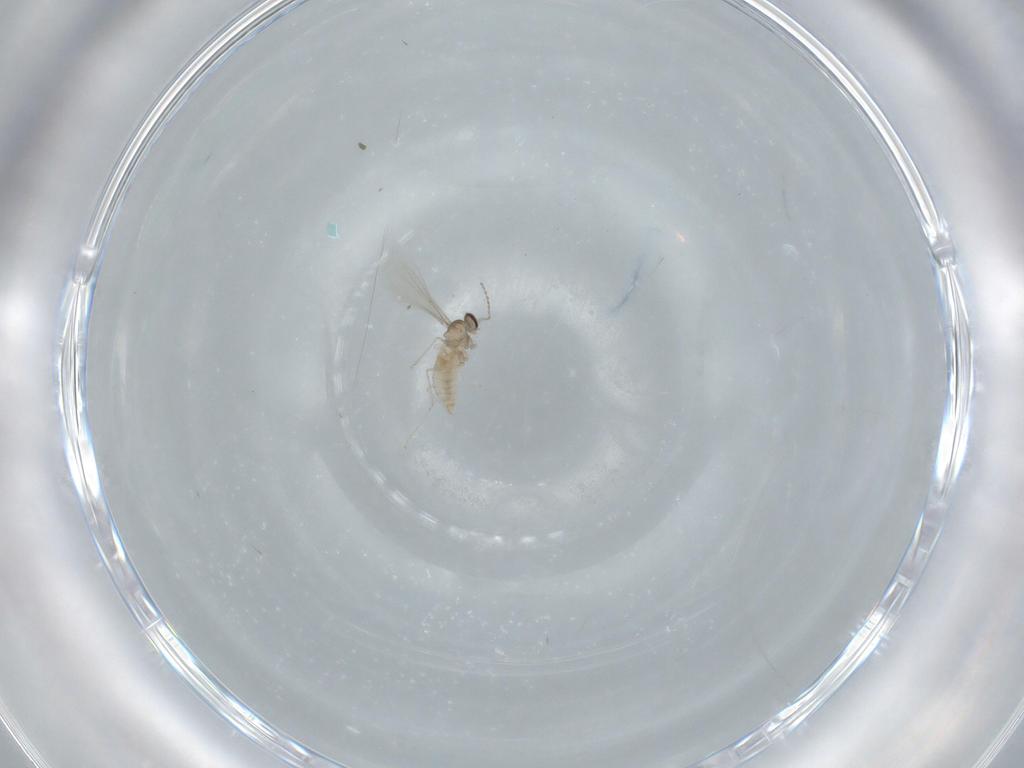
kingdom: Animalia
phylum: Arthropoda
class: Insecta
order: Diptera
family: Cecidomyiidae
